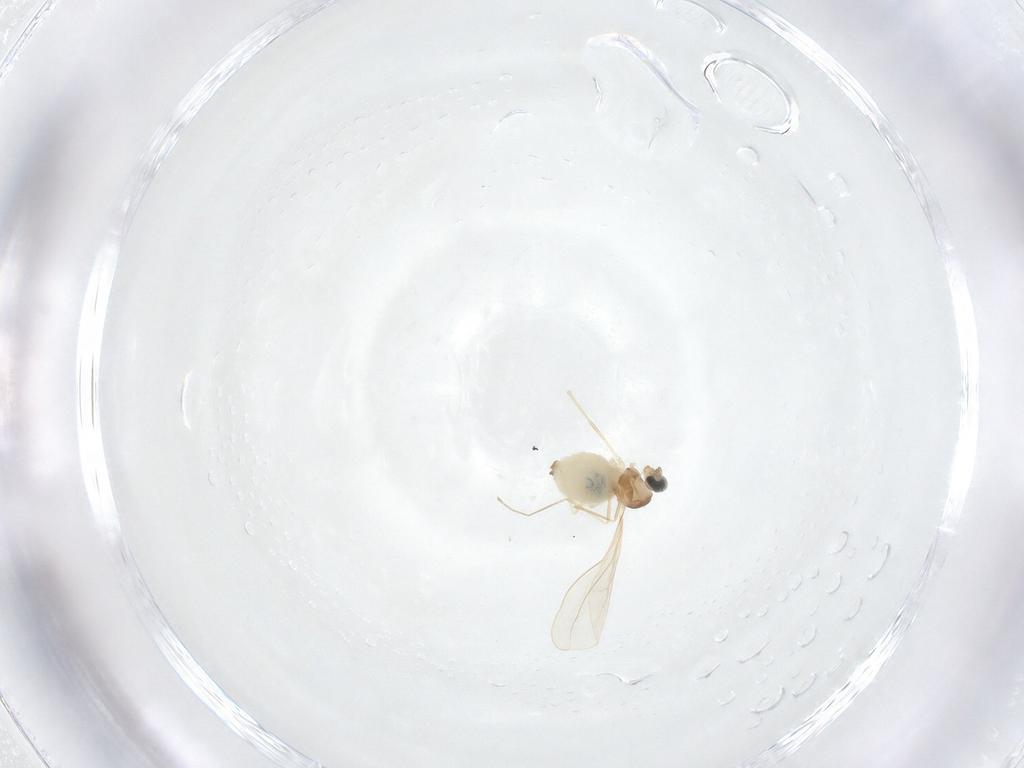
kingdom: Animalia
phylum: Arthropoda
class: Insecta
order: Diptera
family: Cecidomyiidae
